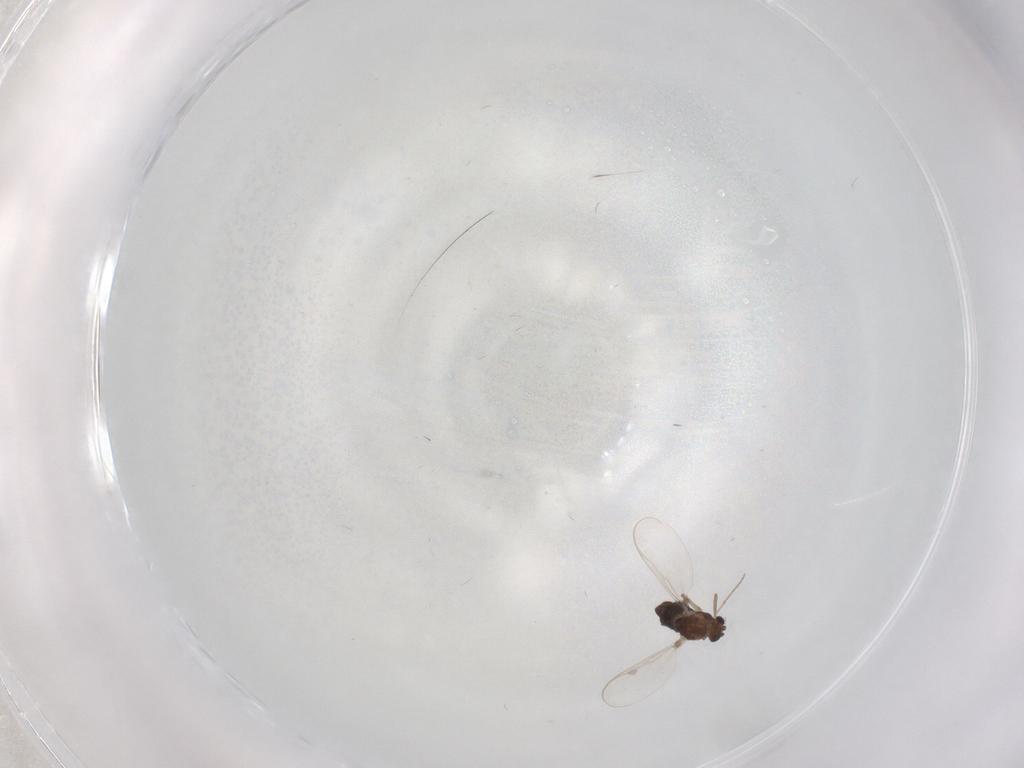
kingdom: Animalia
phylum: Arthropoda
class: Insecta
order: Diptera
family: Chironomidae
